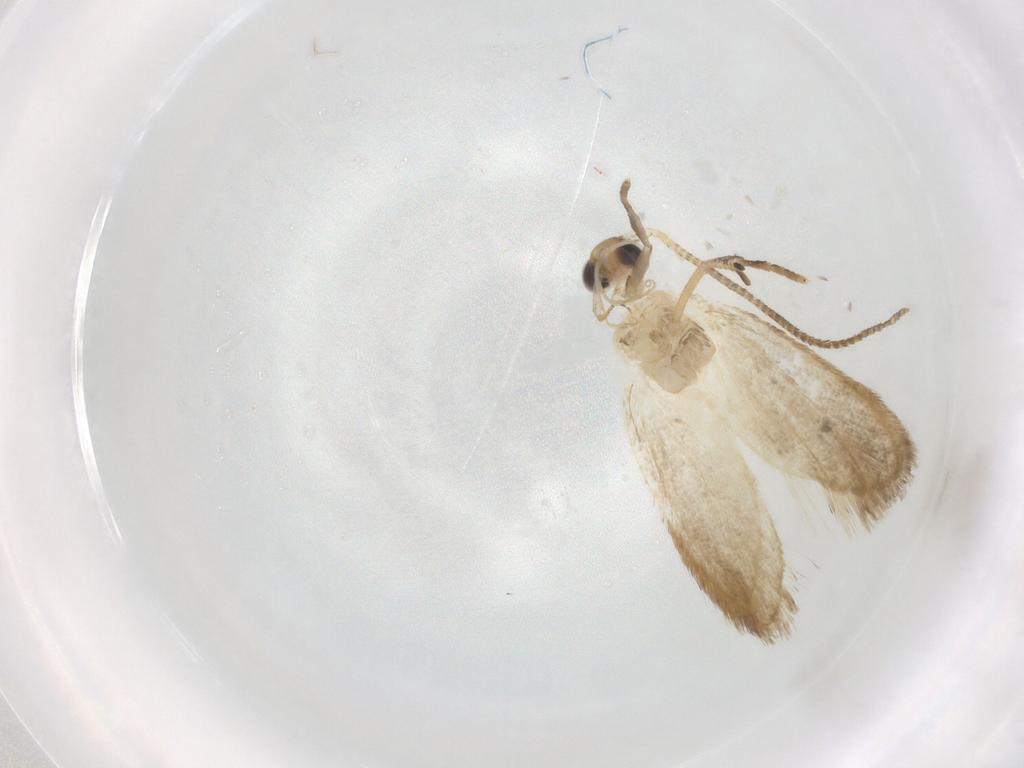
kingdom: Animalia
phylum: Arthropoda
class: Insecta
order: Lepidoptera
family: Lecithoceridae
